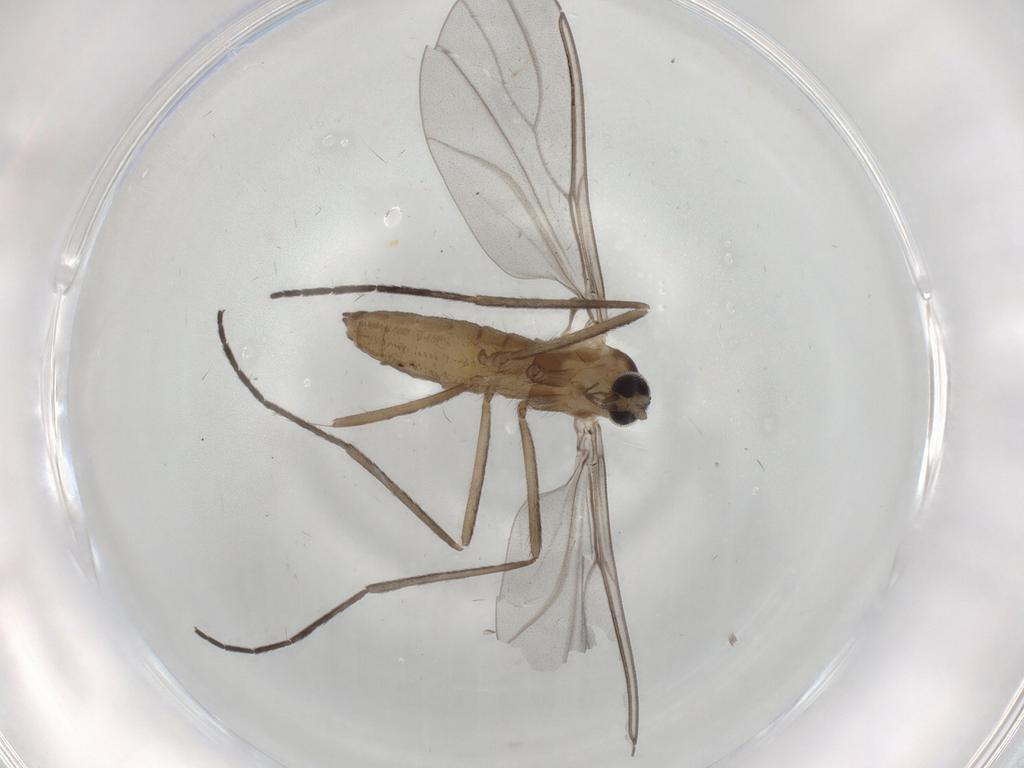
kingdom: Animalia
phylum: Arthropoda
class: Insecta
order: Diptera
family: Cecidomyiidae
